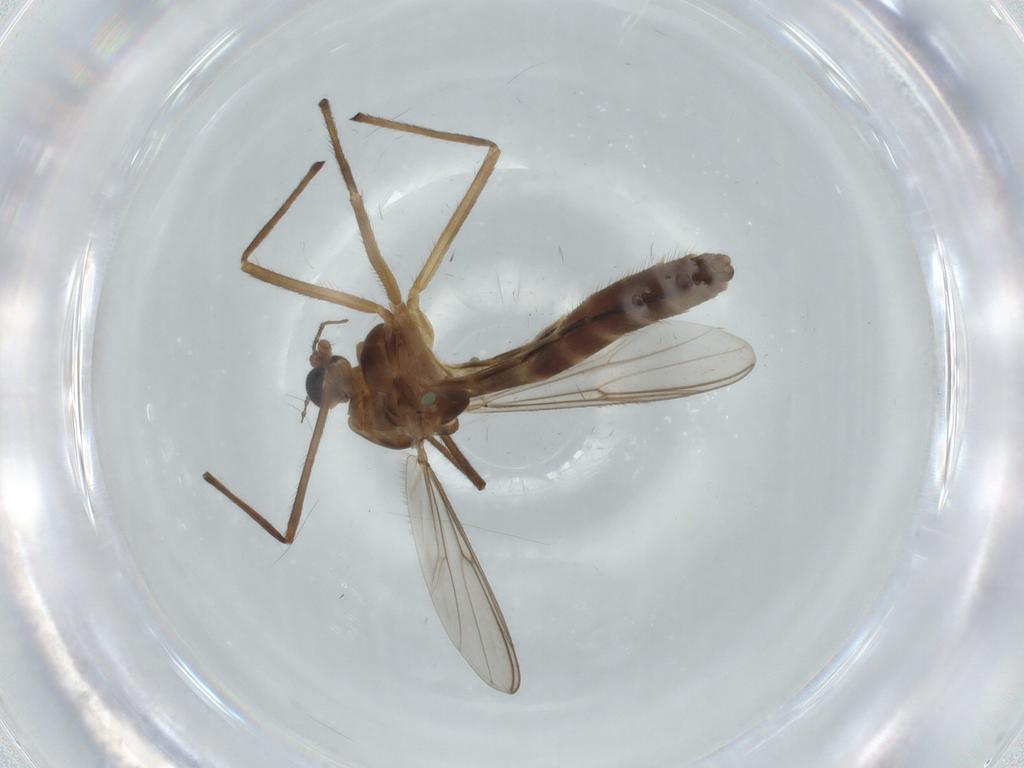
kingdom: Animalia
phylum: Arthropoda
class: Insecta
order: Diptera
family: Chironomidae
